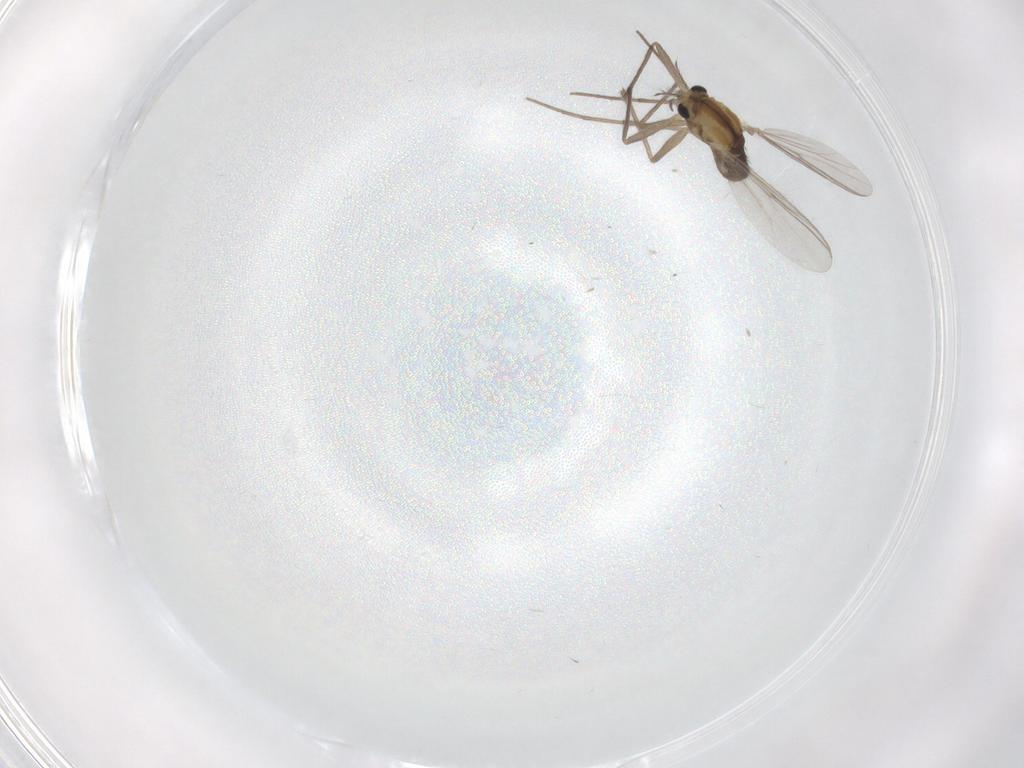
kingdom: Animalia
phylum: Arthropoda
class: Insecta
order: Diptera
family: Chironomidae
